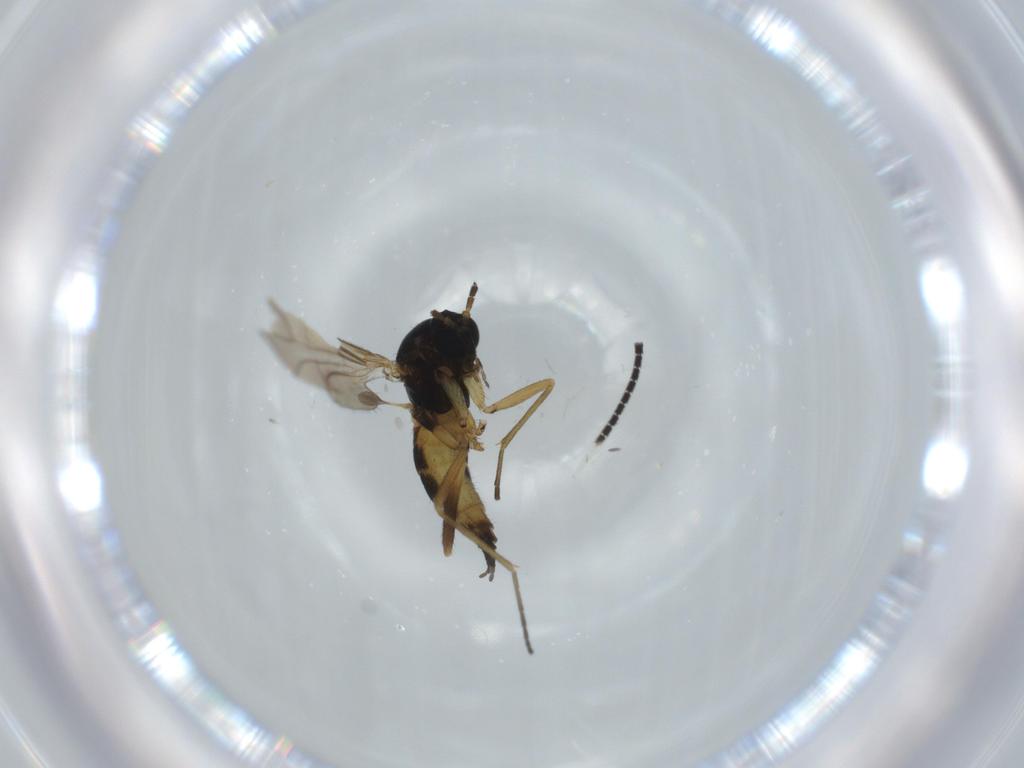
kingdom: Animalia
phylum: Arthropoda
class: Insecta
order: Diptera
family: Sciaridae
